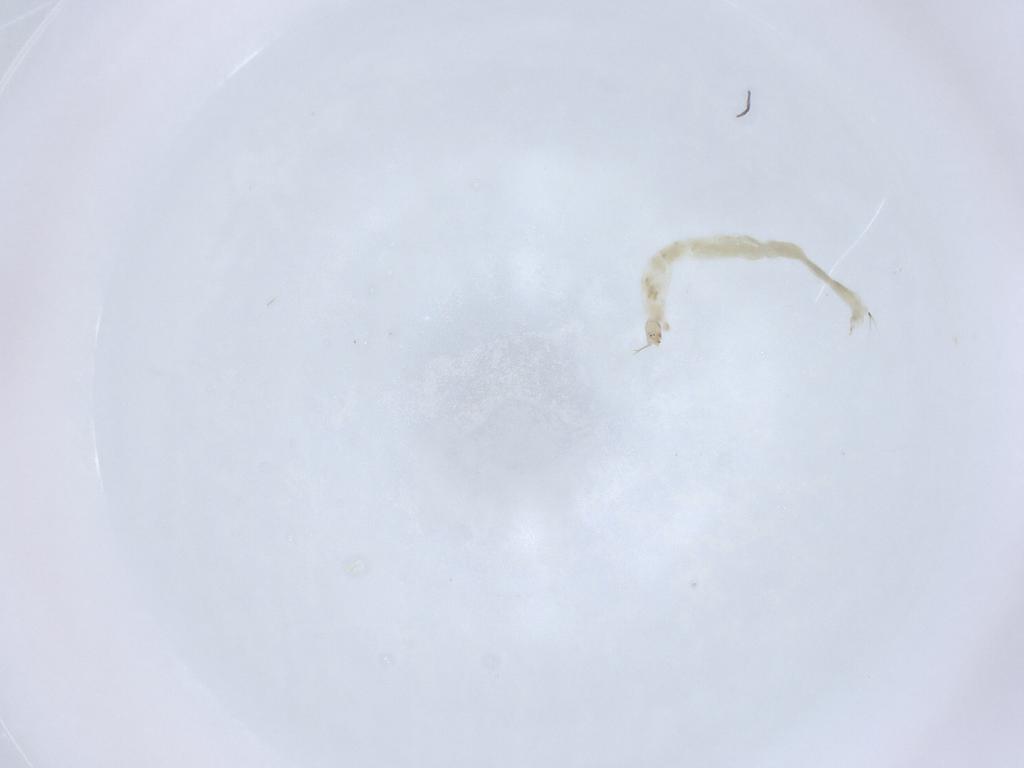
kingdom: Animalia
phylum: Arthropoda
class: Insecta
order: Diptera
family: Chironomidae
